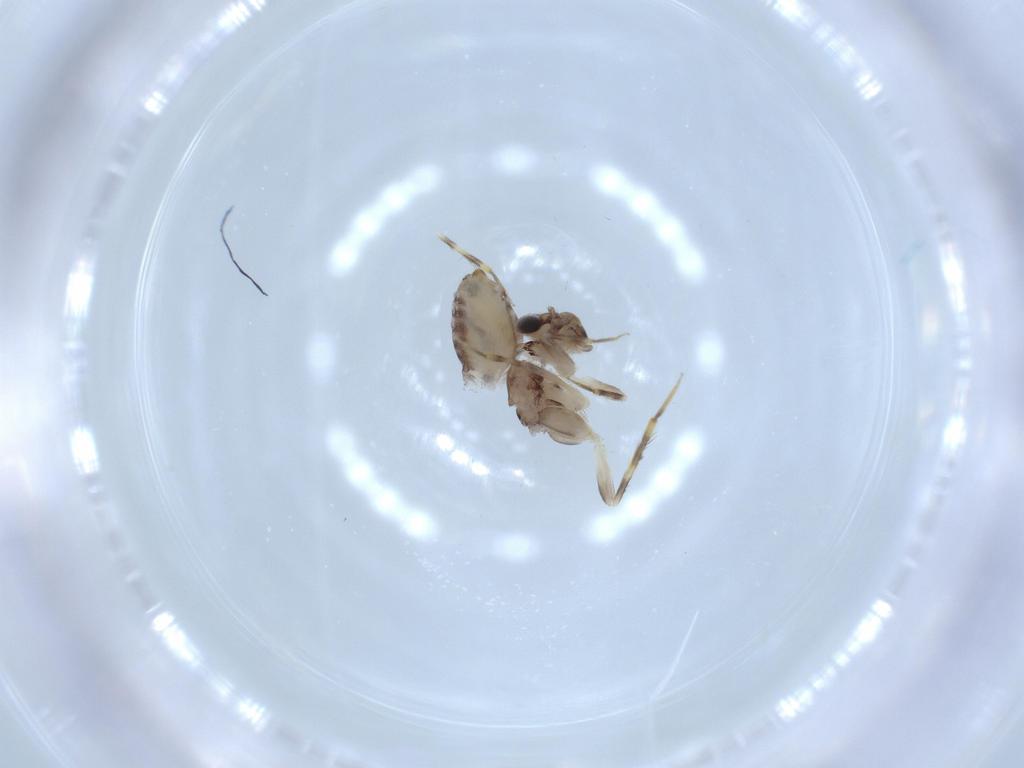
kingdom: Animalia
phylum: Arthropoda
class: Insecta
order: Psocodea
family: Lepidopsocidae
